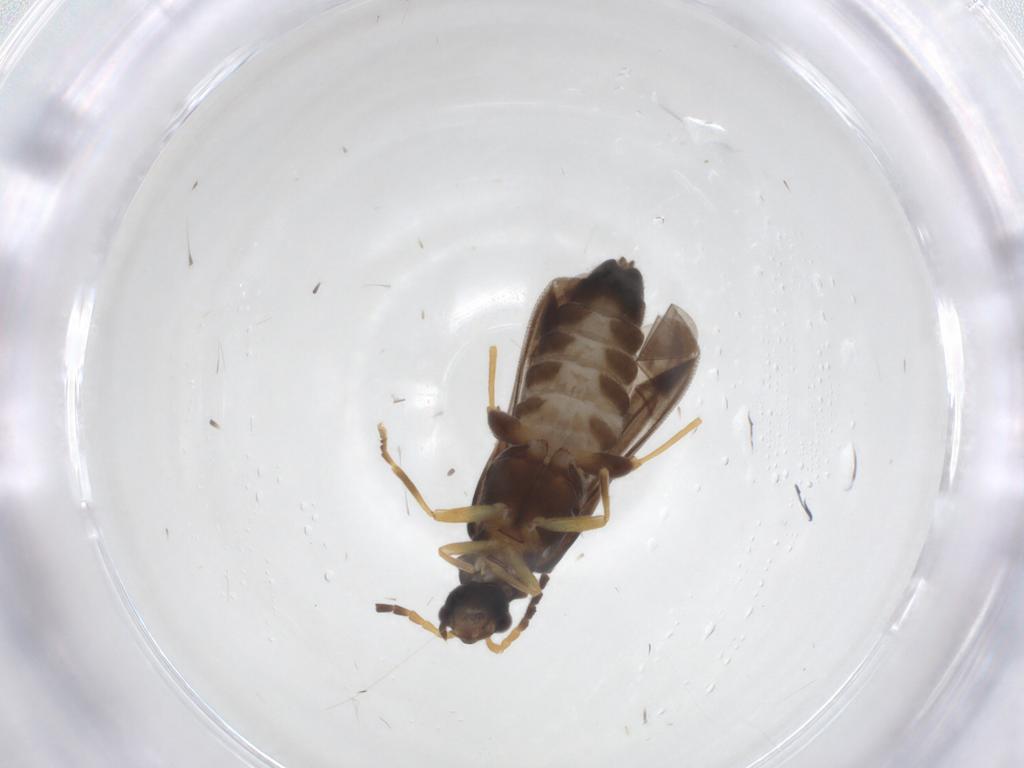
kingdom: Animalia
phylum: Arthropoda
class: Insecta
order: Coleoptera
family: Cantharidae
